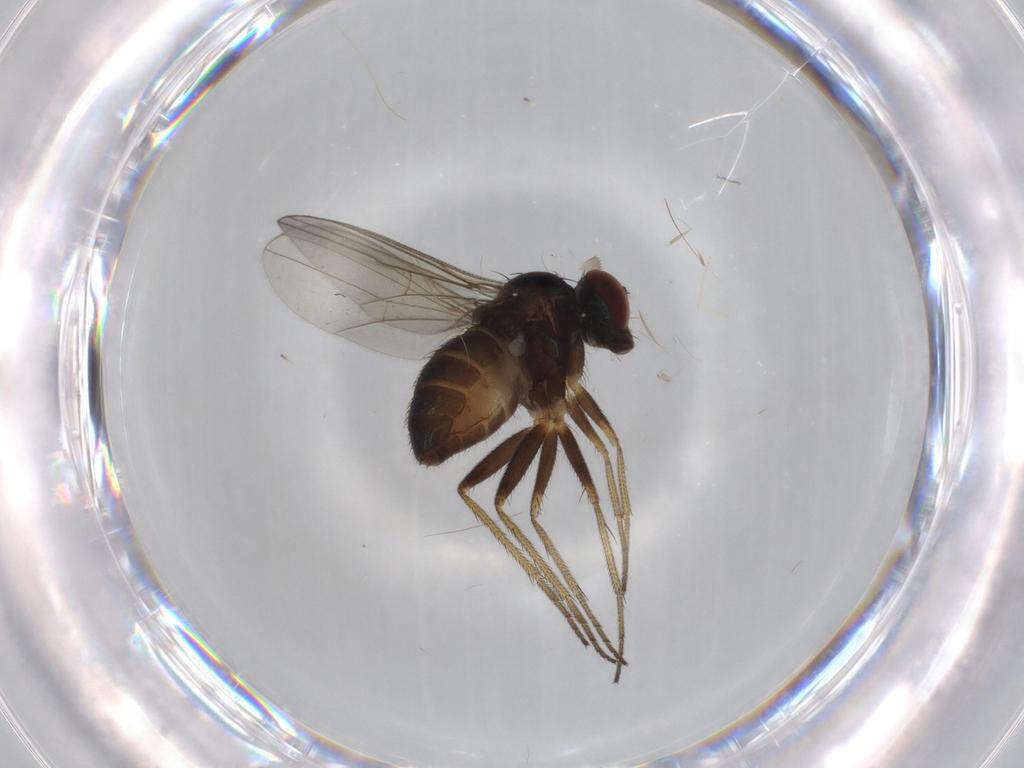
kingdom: Animalia
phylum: Arthropoda
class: Insecta
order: Diptera
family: Cecidomyiidae
